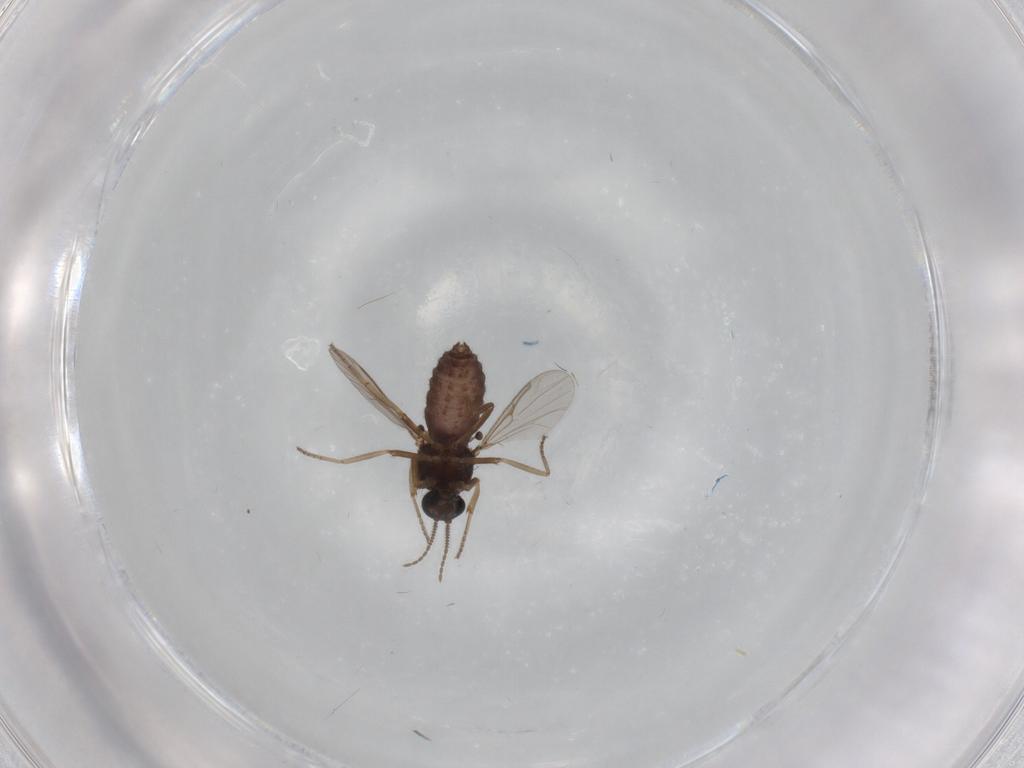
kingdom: Animalia
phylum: Arthropoda
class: Insecta
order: Diptera
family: Ceratopogonidae
